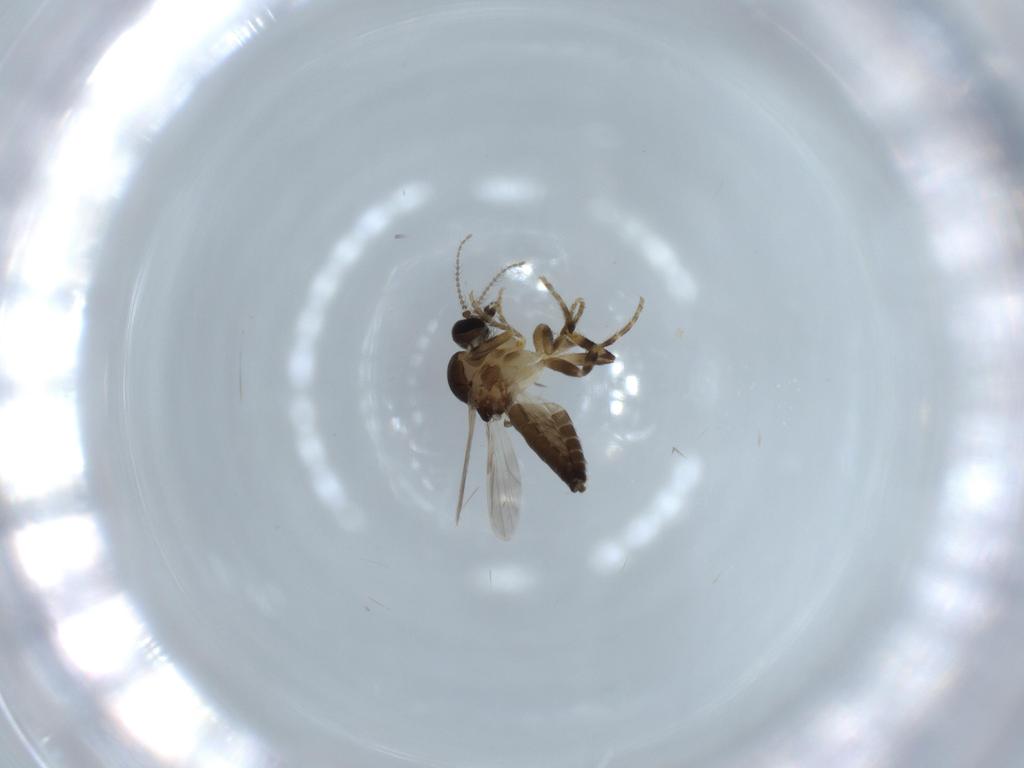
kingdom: Animalia
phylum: Arthropoda
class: Insecta
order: Diptera
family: Ceratopogonidae
